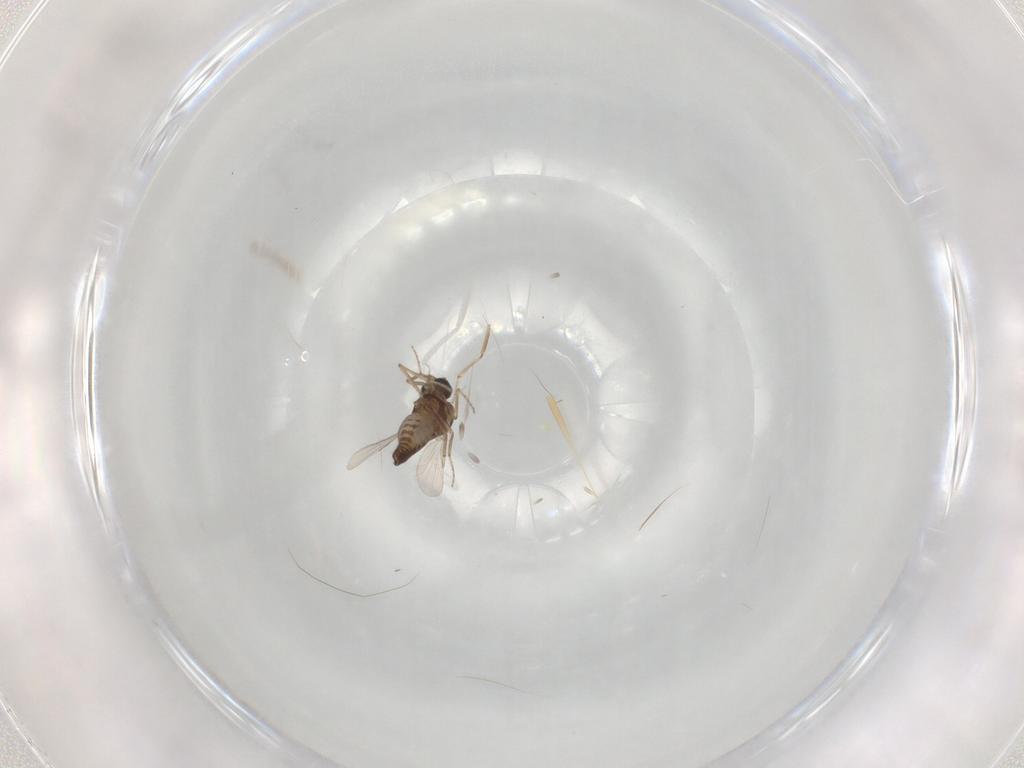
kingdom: Animalia
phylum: Arthropoda
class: Insecta
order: Diptera
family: Ceratopogonidae
